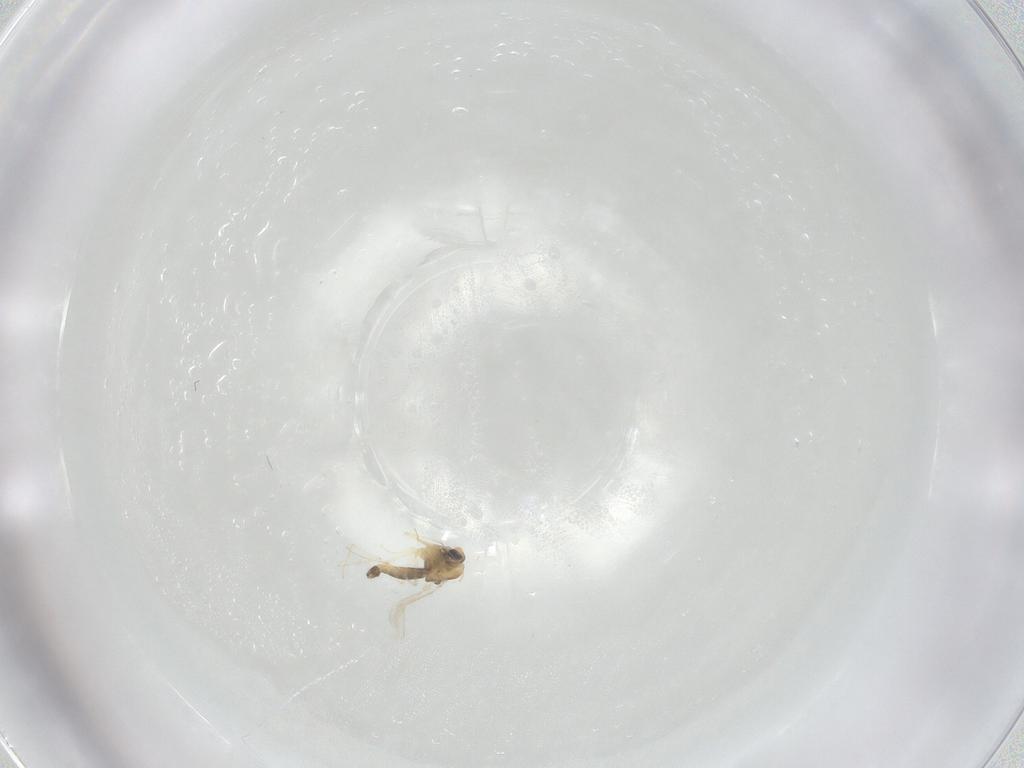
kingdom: Animalia
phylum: Arthropoda
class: Insecta
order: Diptera
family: Chironomidae
